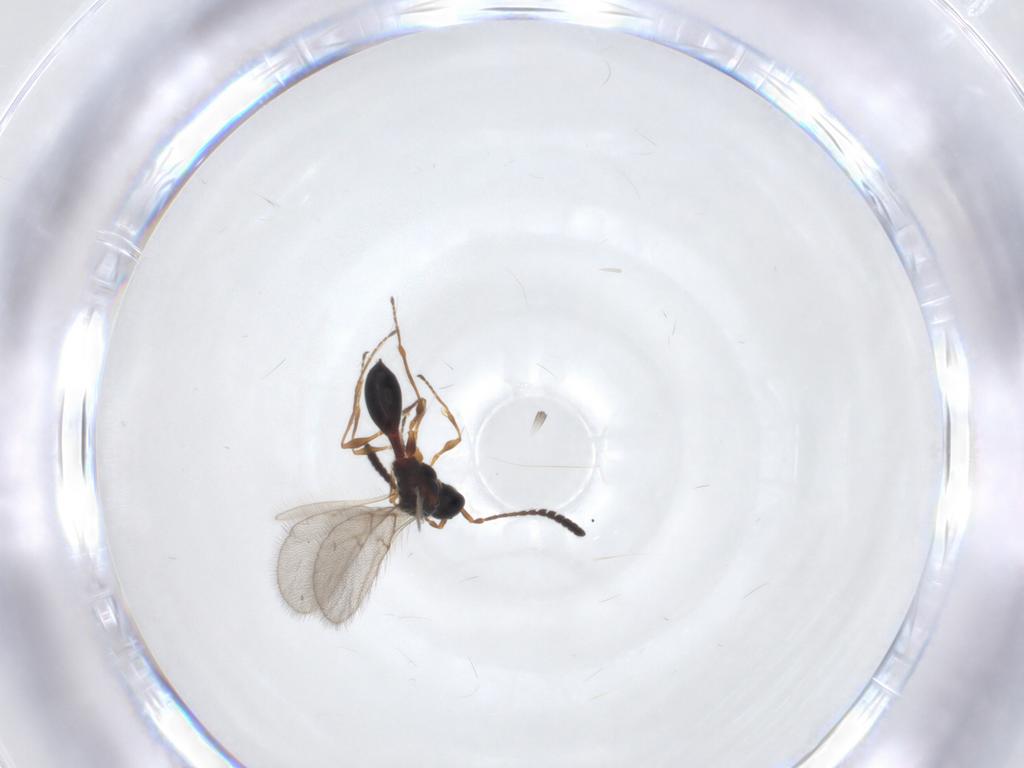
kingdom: Animalia
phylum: Arthropoda
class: Insecta
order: Hymenoptera
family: Diapriidae
